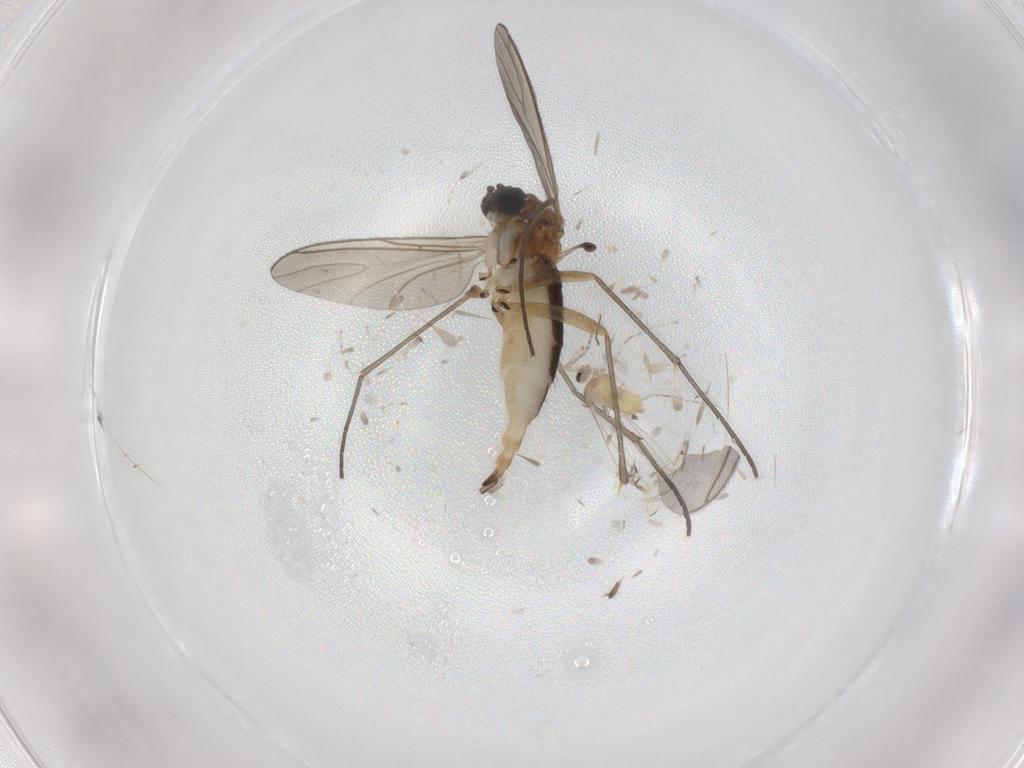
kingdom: Animalia
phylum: Arthropoda
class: Insecta
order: Diptera
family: Sciaridae
